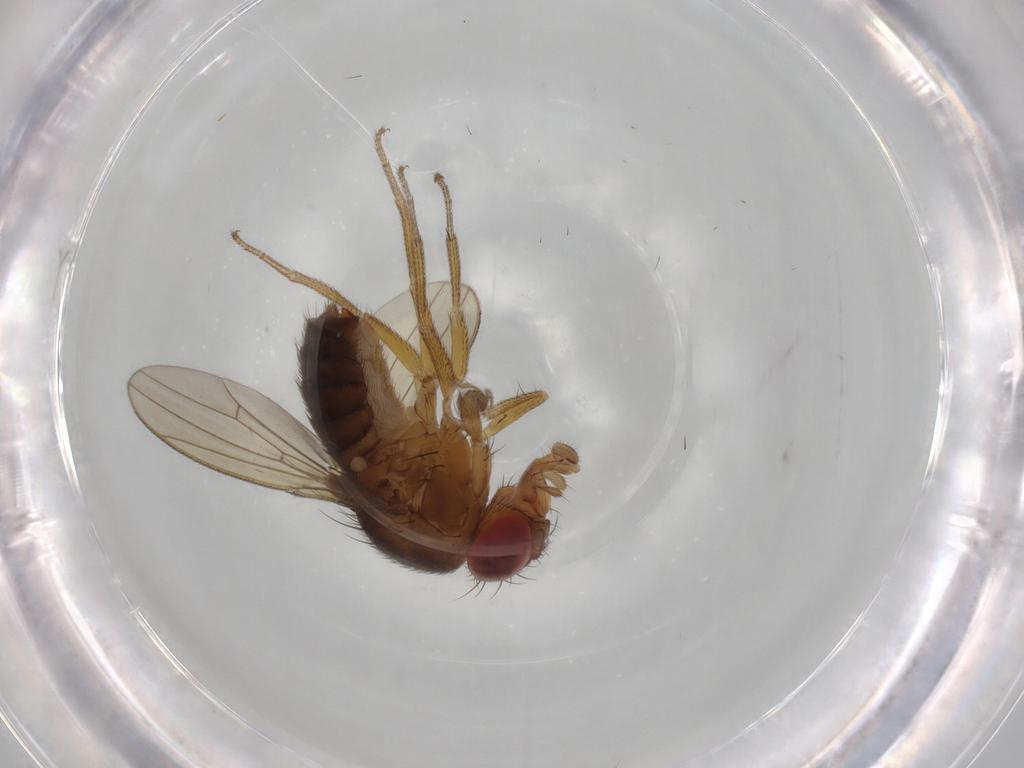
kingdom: Animalia
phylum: Arthropoda
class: Insecta
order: Diptera
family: Drosophilidae
